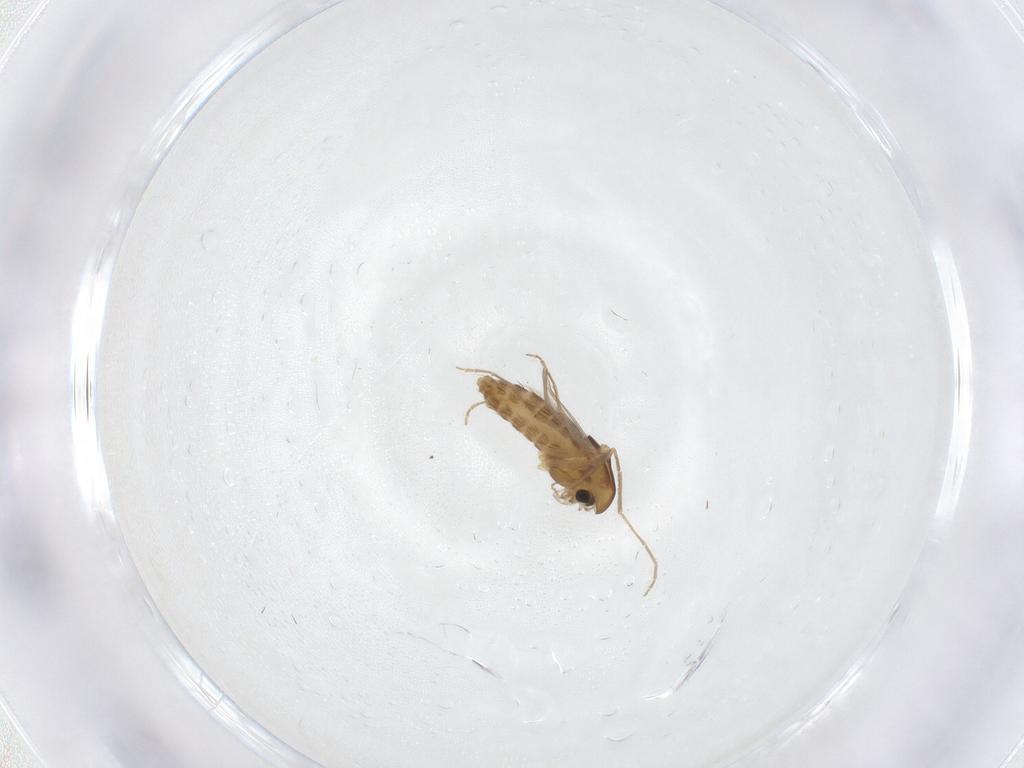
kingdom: Animalia
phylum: Arthropoda
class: Insecta
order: Diptera
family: Chironomidae
